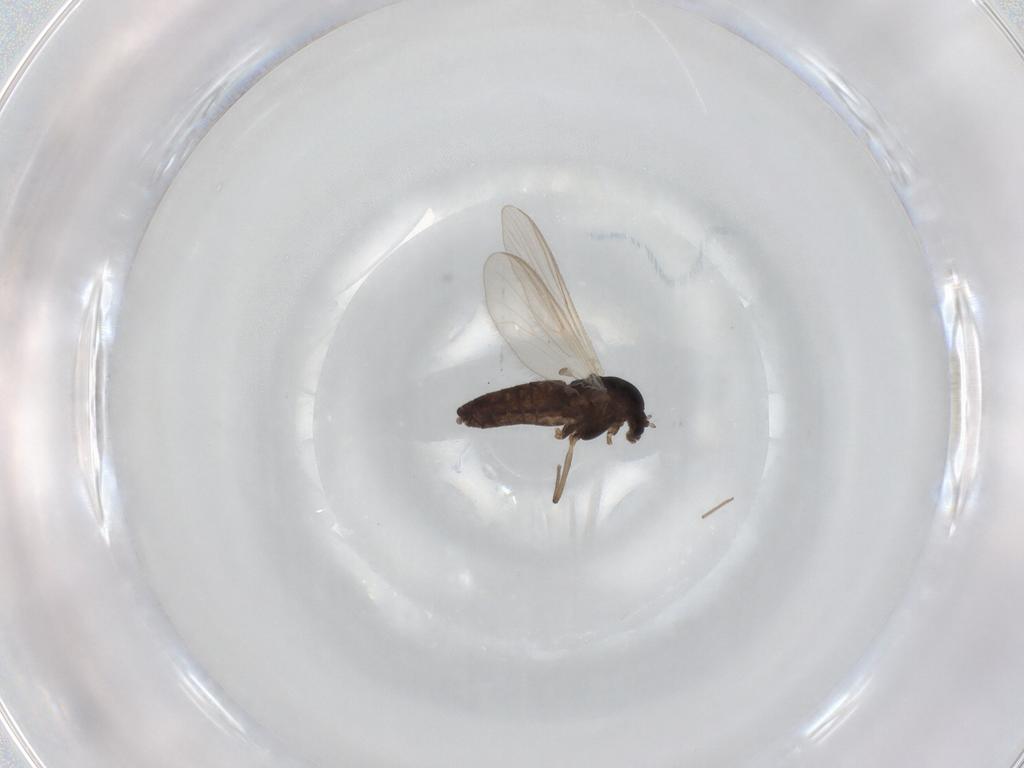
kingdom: Animalia
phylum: Arthropoda
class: Insecta
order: Diptera
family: Chironomidae
